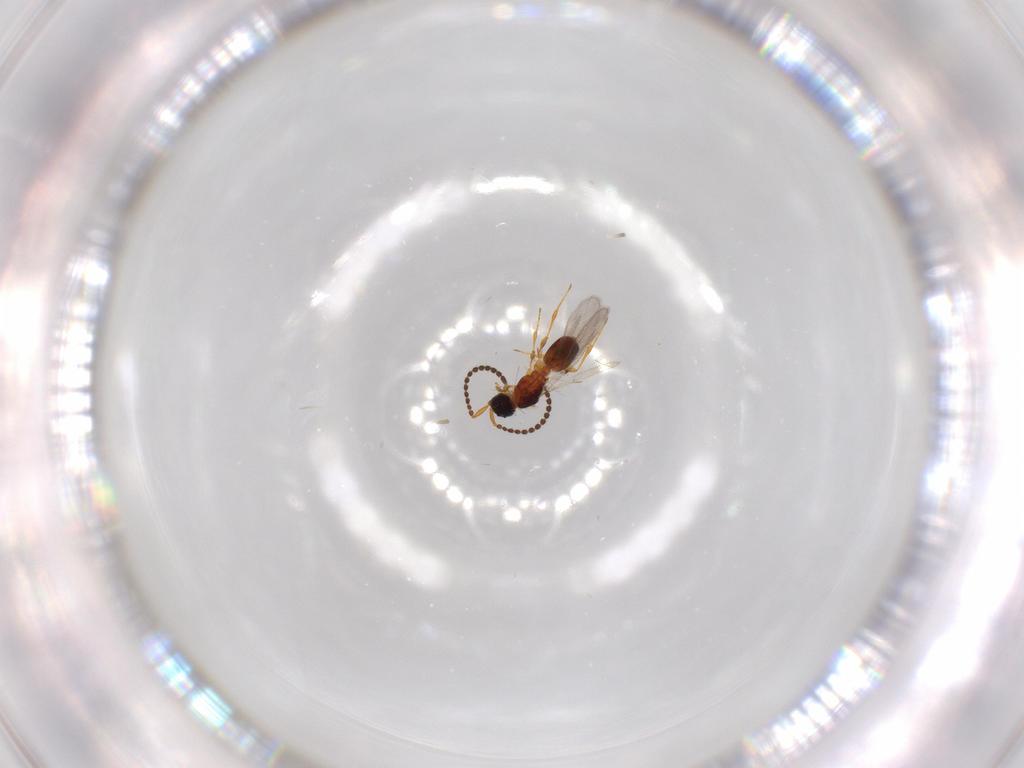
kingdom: Animalia
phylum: Arthropoda
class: Insecta
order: Hymenoptera
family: Diapriidae
